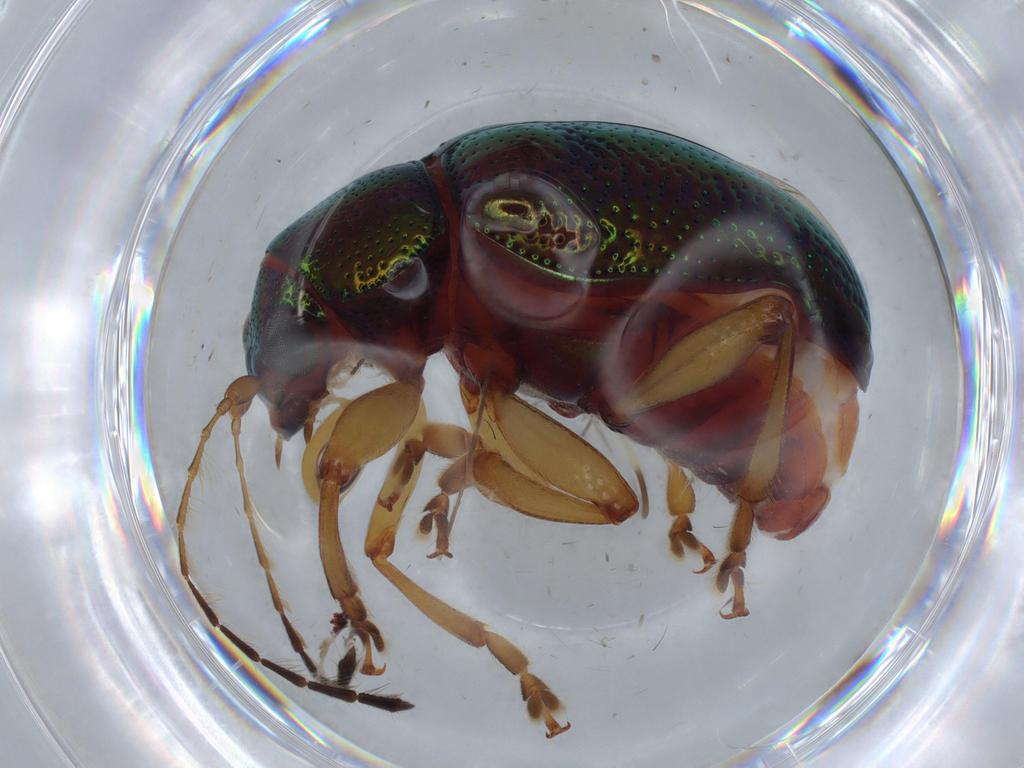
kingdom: Animalia
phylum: Arthropoda
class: Insecta
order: Coleoptera
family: Chrysomelidae
